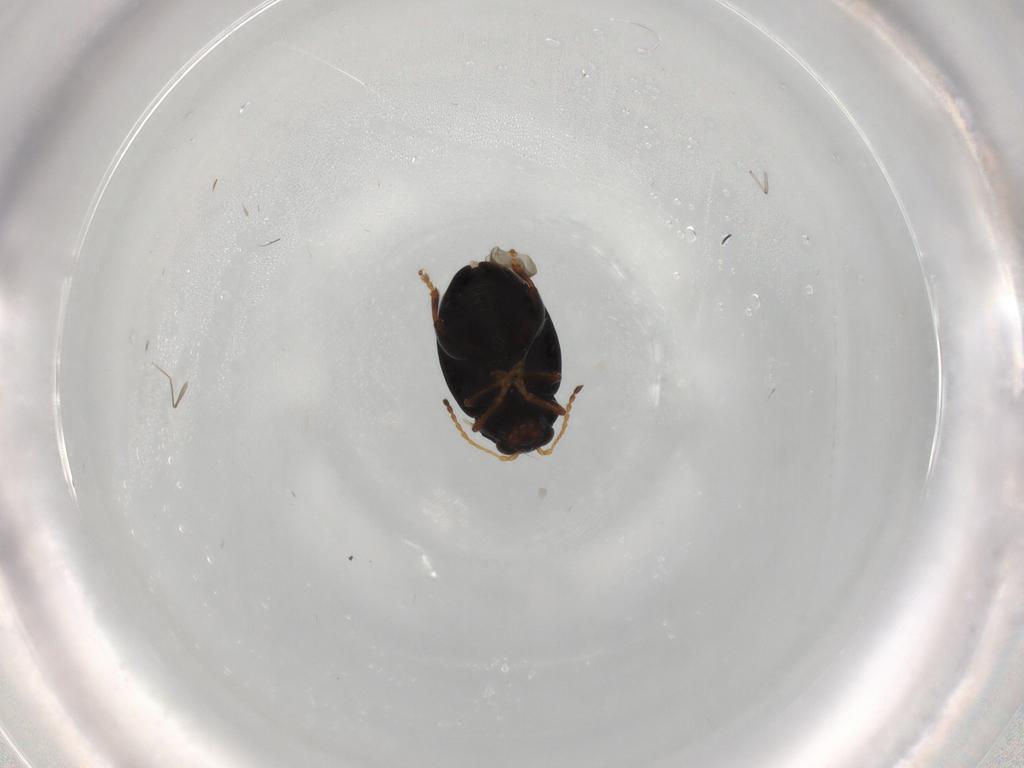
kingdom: Animalia
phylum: Arthropoda
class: Insecta
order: Coleoptera
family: Chrysomelidae
